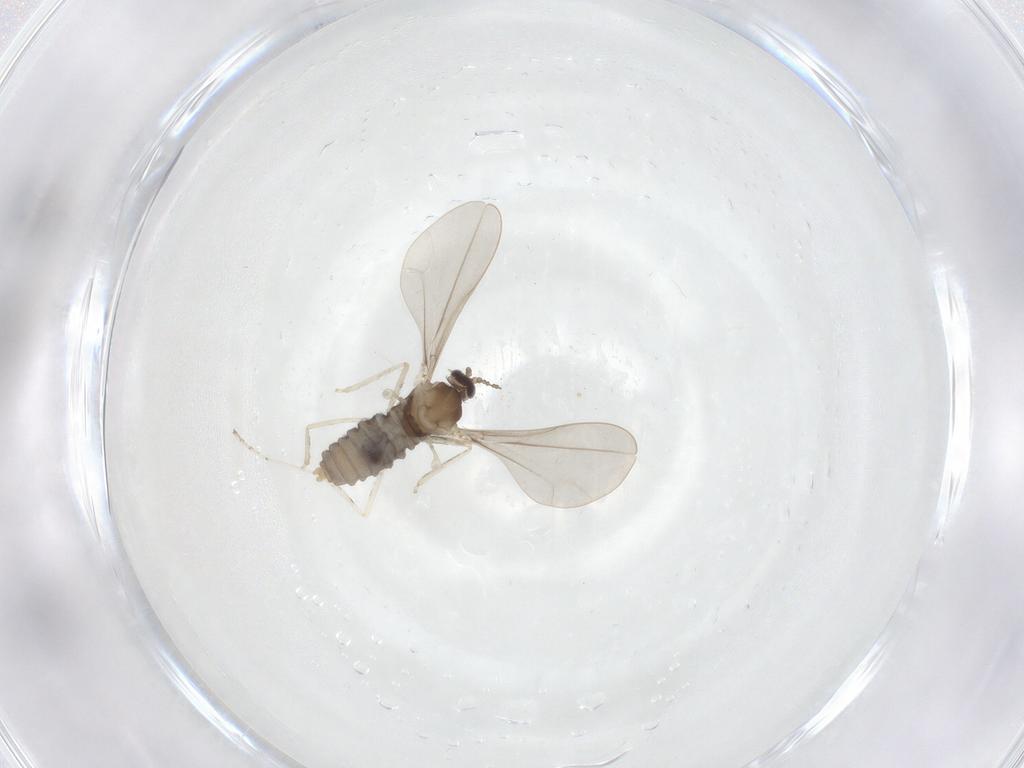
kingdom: Animalia
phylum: Arthropoda
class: Insecta
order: Diptera
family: Cecidomyiidae
